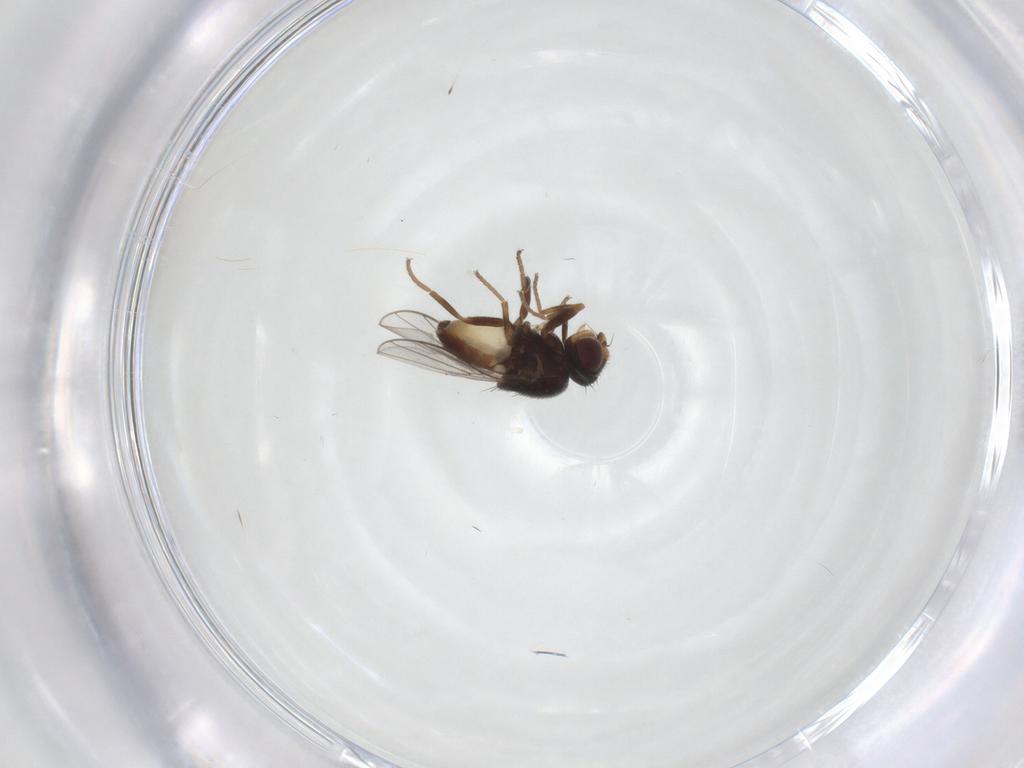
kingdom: Animalia
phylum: Arthropoda
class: Insecta
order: Diptera
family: Chloropidae
